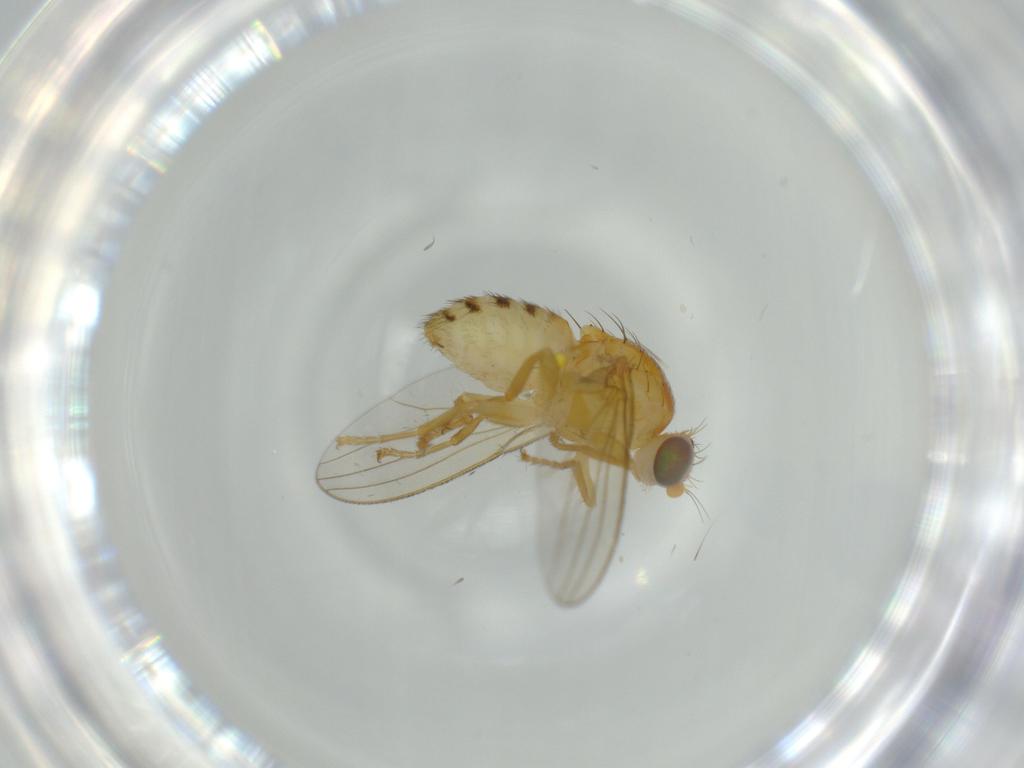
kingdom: Animalia
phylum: Arthropoda
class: Insecta
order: Diptera
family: Chyromyidae
